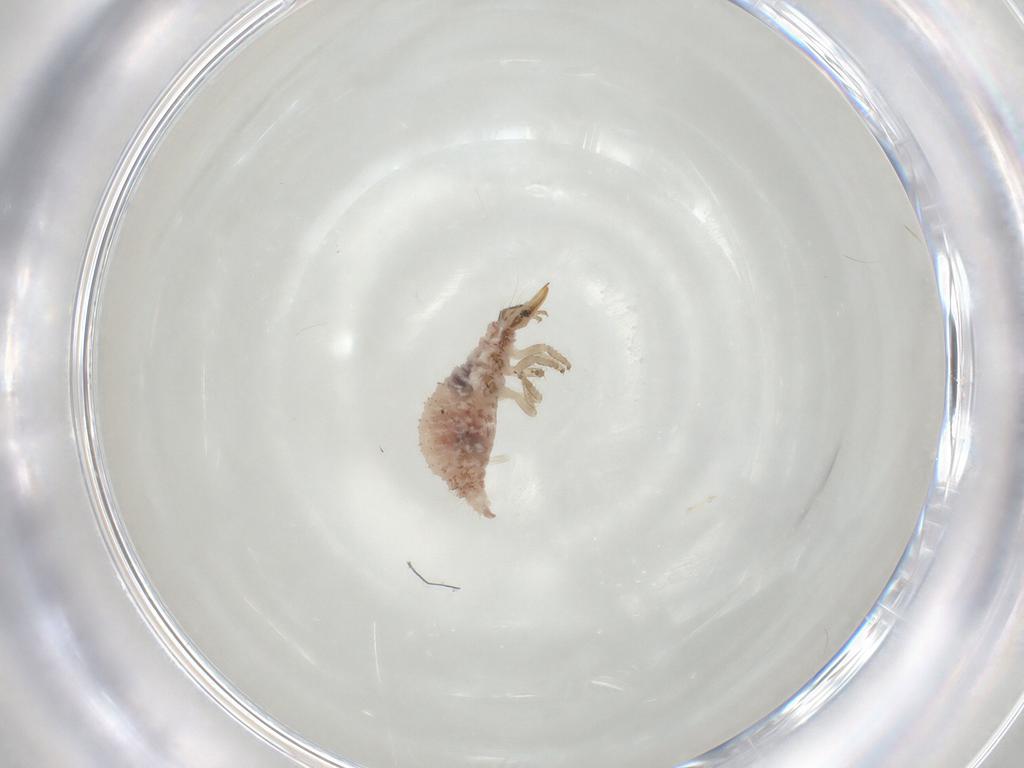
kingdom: Animalia
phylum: Arthropoda
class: Insecta
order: Neuroptera
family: Chrysopidae
